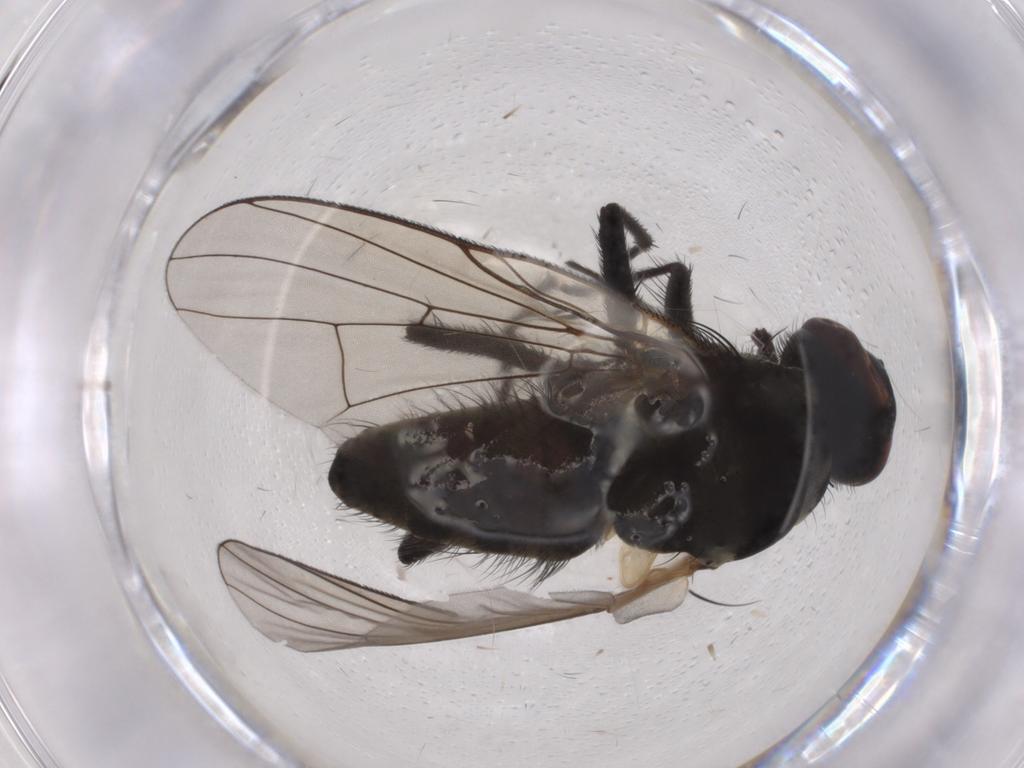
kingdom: Animalia
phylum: Arthropoda
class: Insecta
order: Diptera
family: Muscidae
